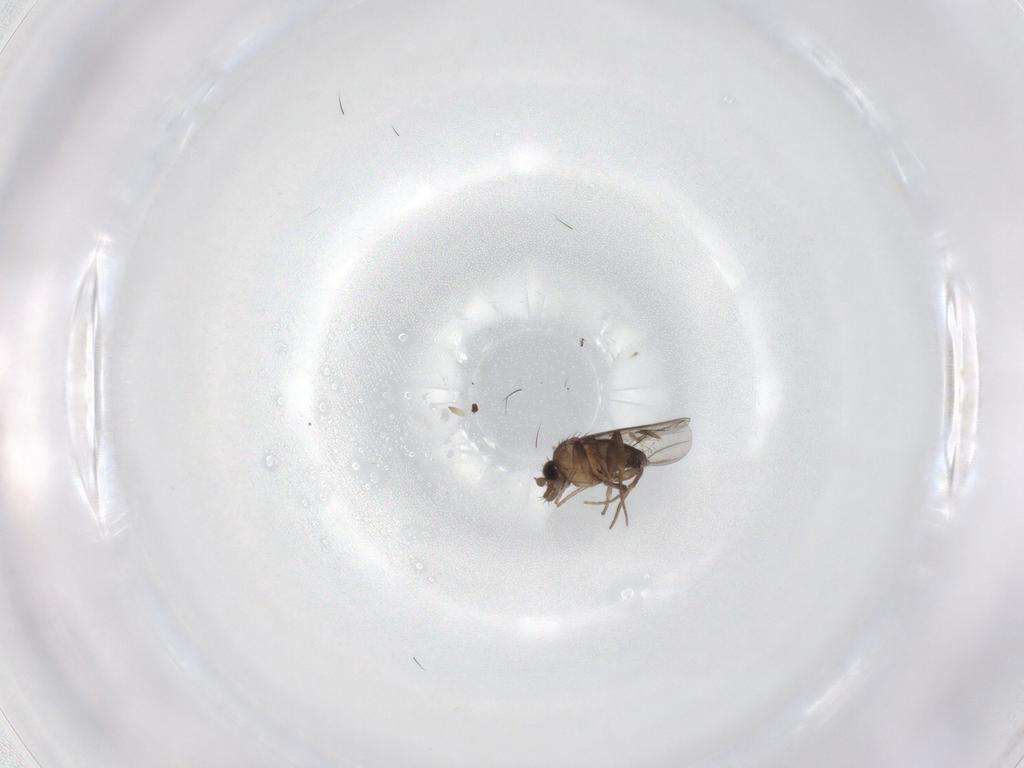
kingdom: Animalia
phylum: Arthropoda
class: Insecta
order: Diptera
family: Phoridae
